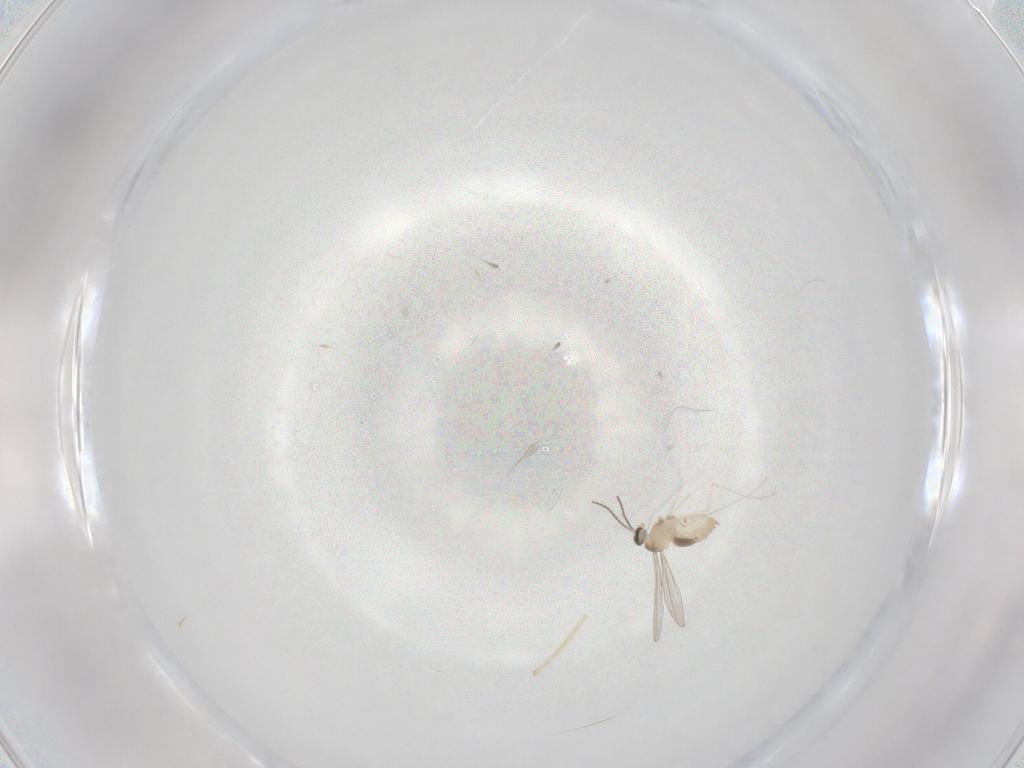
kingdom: Animalia
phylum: Arthropoda
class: Insecta
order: Diptera
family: Cecidomyiidae
